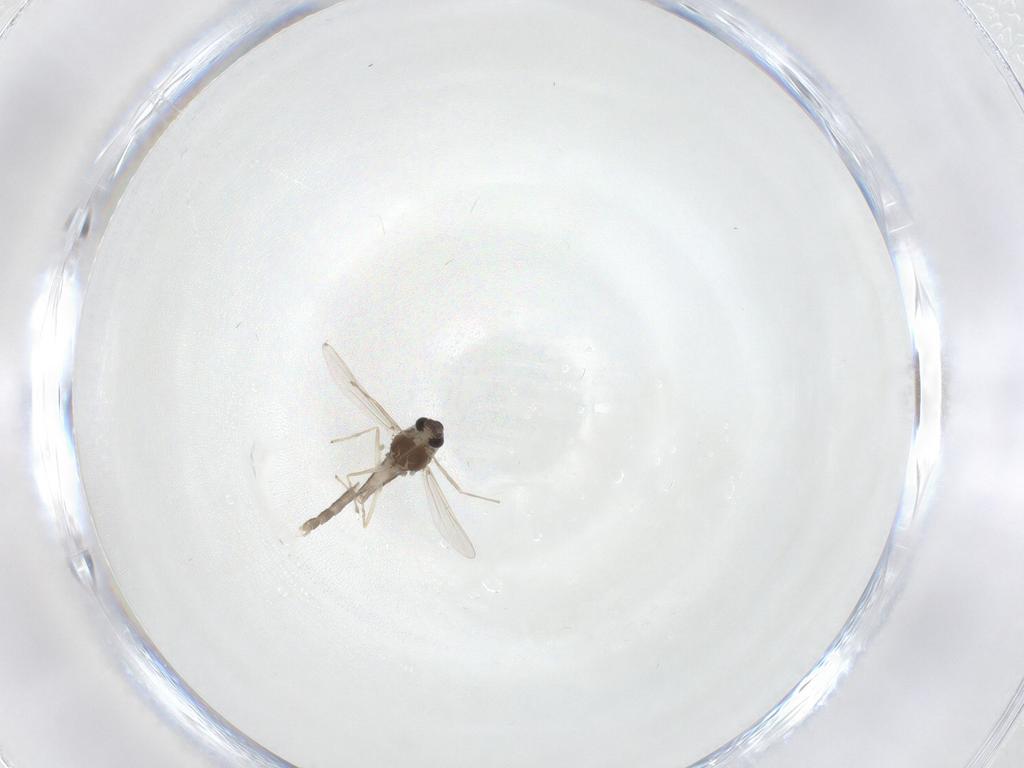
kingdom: Animalia
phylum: Arthropoda
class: Insecta
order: Diptera
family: Chironomidae
